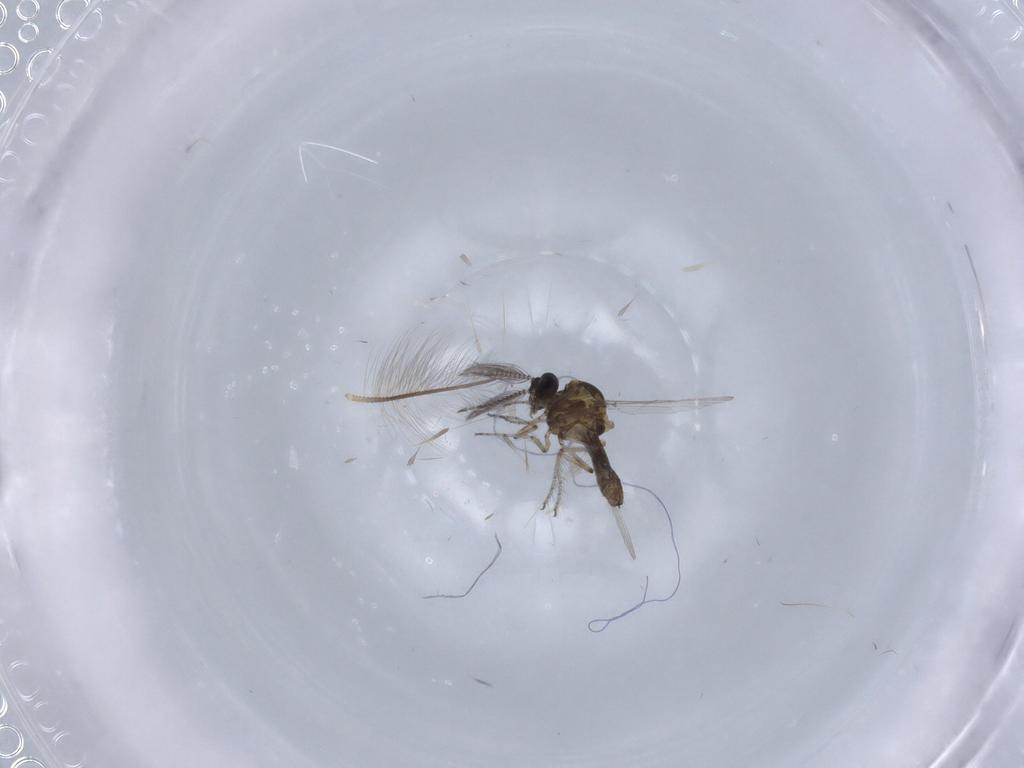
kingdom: Animalia
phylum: Arthropoda
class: Insecta
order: Diptera
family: Ceratopogonidae
